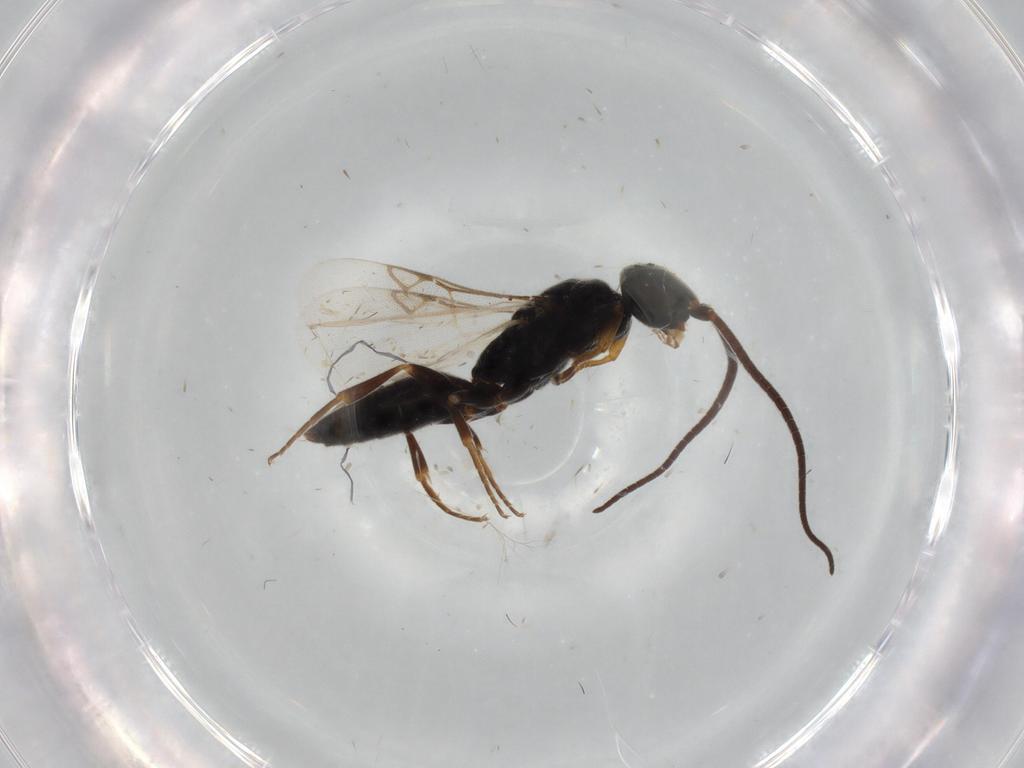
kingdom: Animalia
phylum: Arthropoda
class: Insecta
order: Hymenoptera
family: Sclerogibbidae
